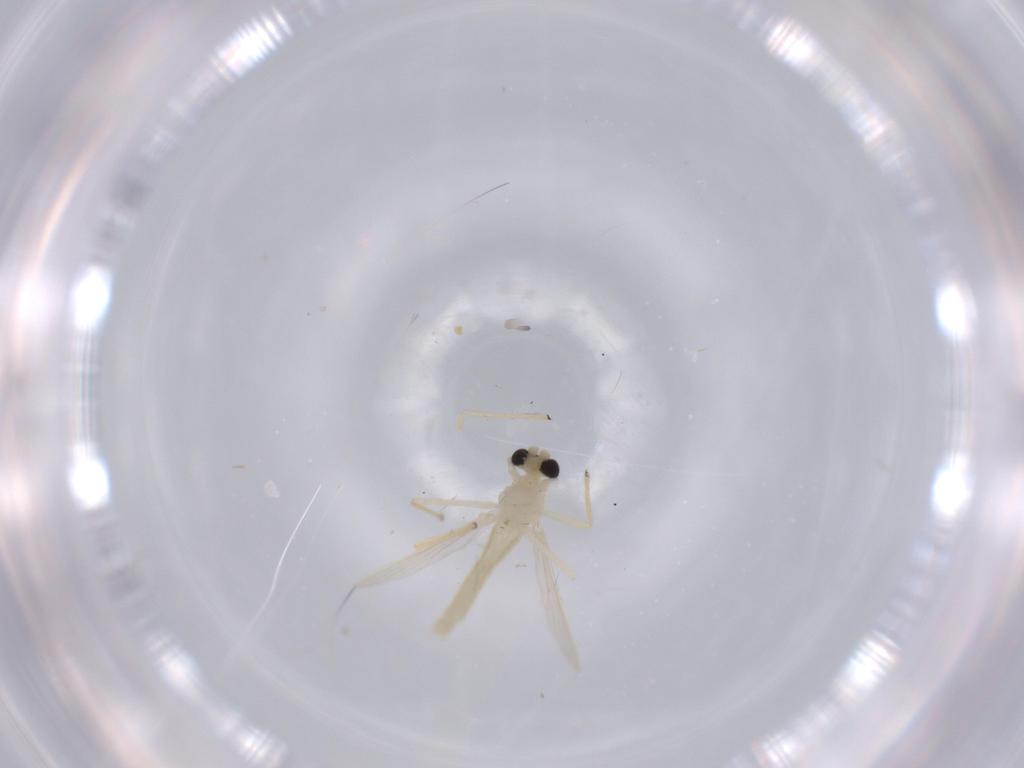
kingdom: Animalia
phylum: Arthropoda
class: Insecta
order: Diptera
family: Chironomidae
